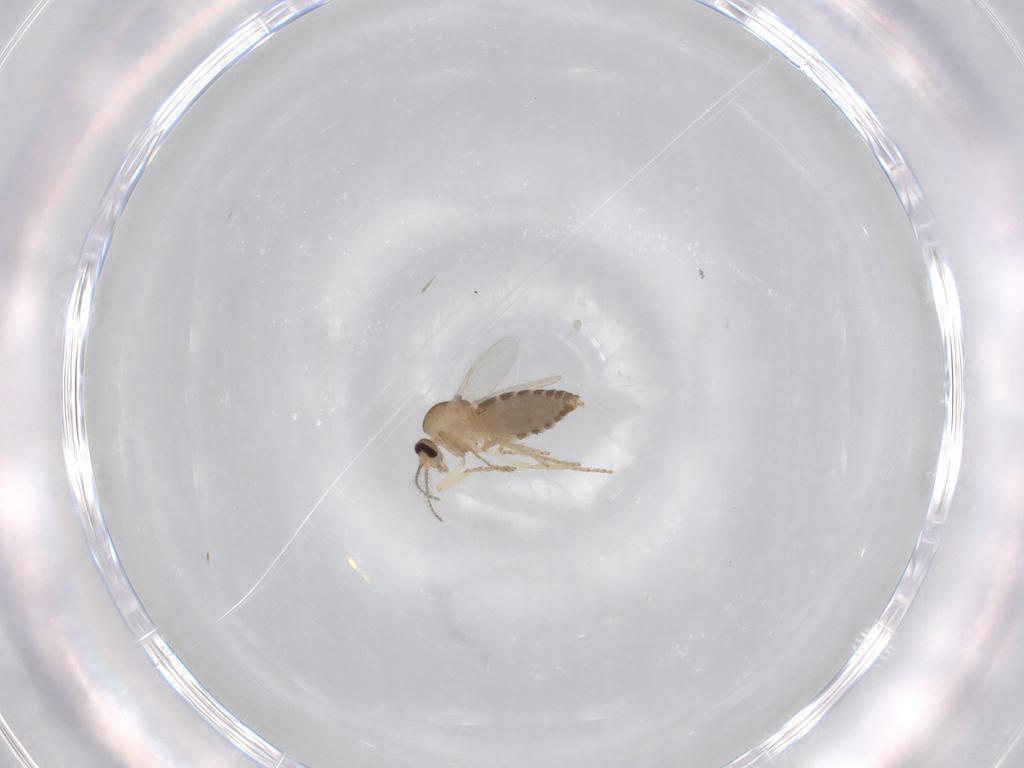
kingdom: Animalia
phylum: Arthropoda
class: Insecta
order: Diptera
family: Ceratopogonidae
